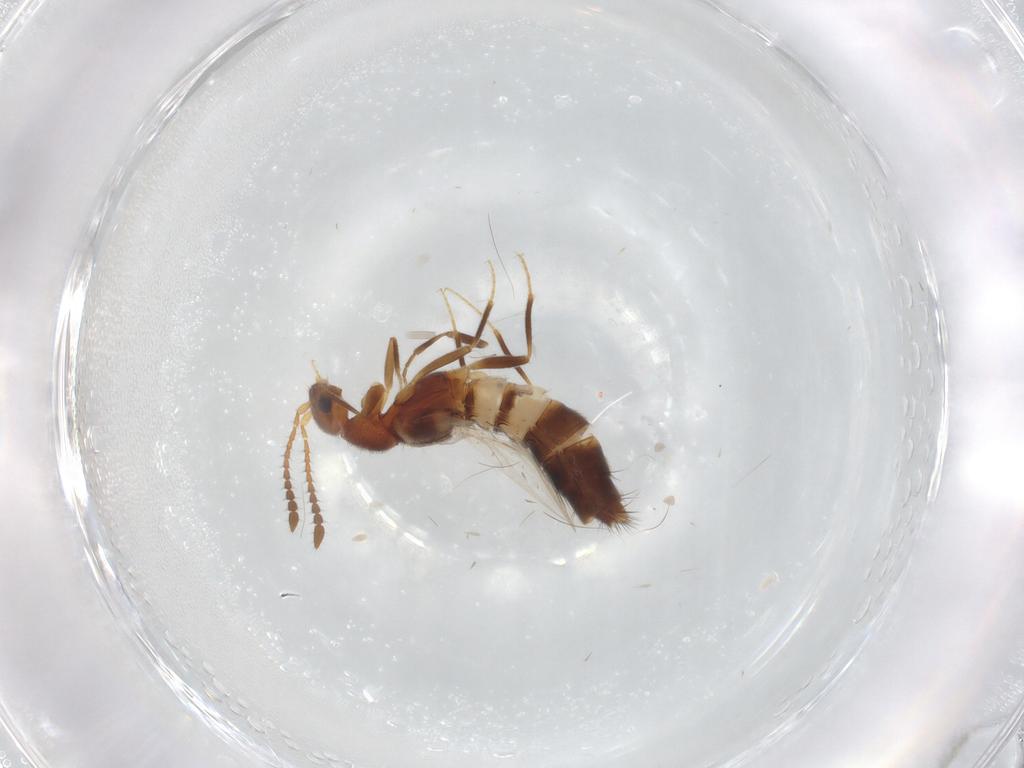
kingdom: Animalia
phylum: Arthropoda
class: Insecta
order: Coleoptera
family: Staphylinidae
